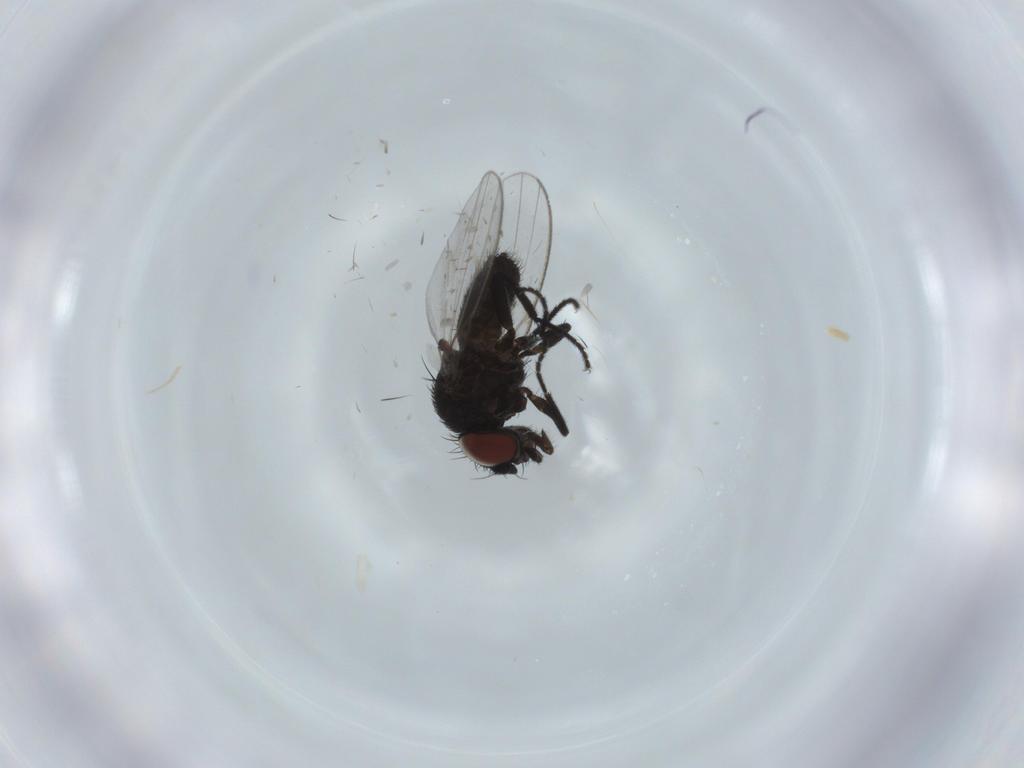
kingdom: Animalia
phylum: Arthropoda
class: Insecta
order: Diptera
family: Milichiidae
